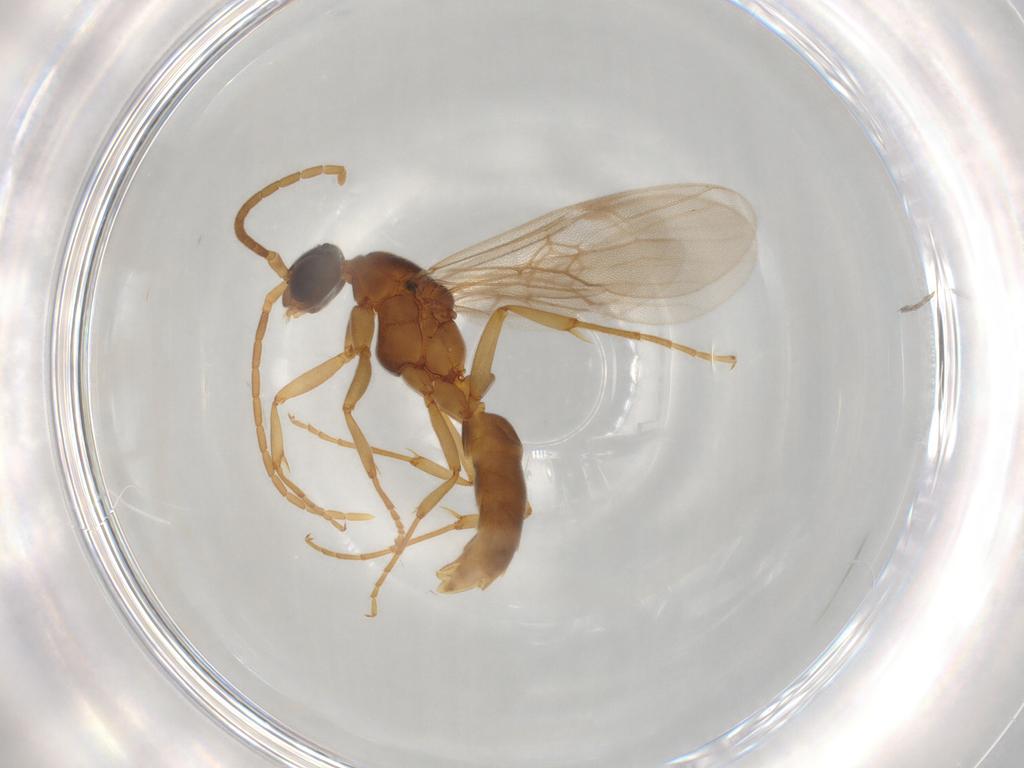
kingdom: Animalia
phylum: Arthropoda
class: Insecta
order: Hymenoptera
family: Formicidae
